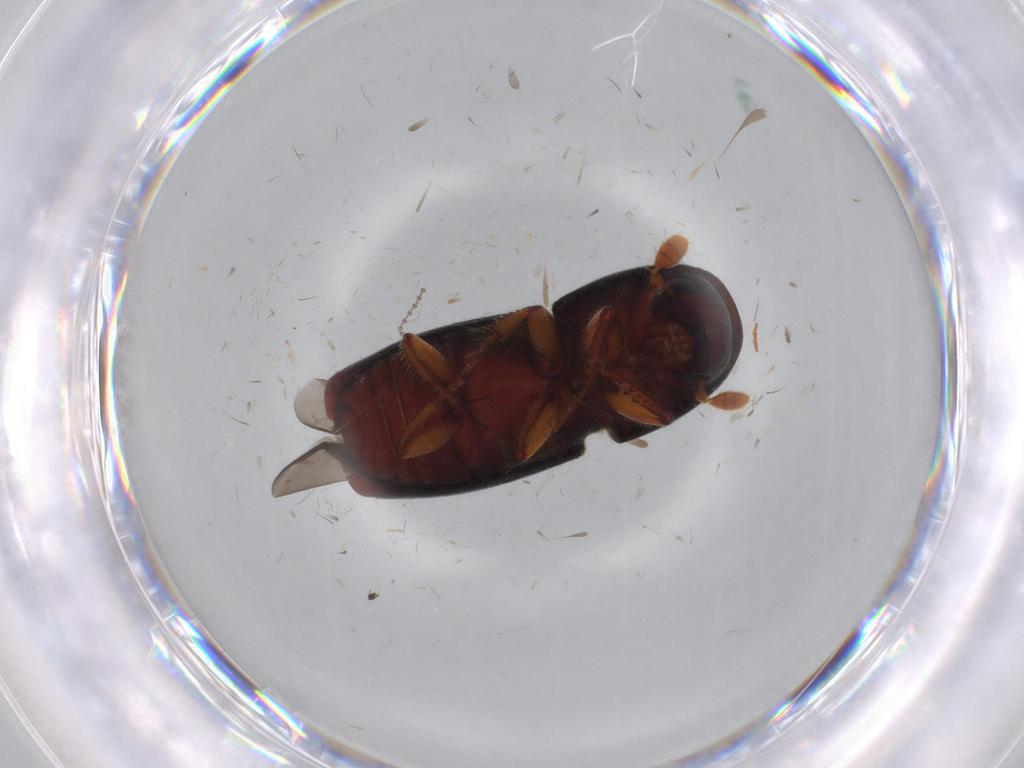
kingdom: Animalia
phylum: Arthropoda
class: Insecta
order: Coleoptera
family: Curculionidae
